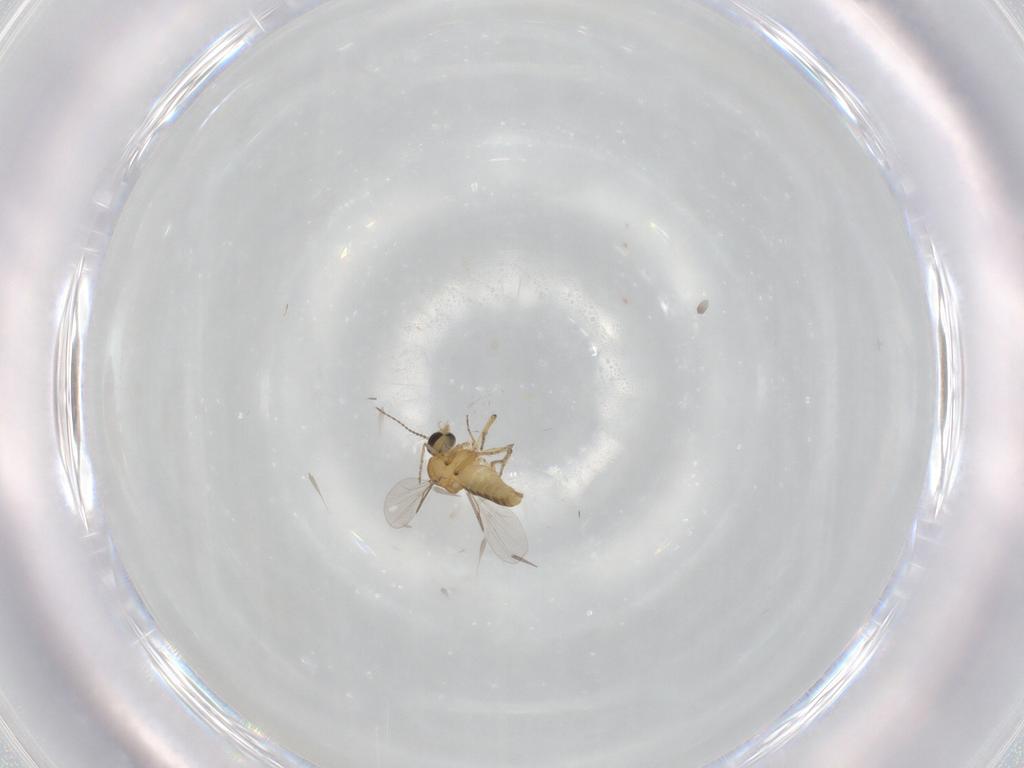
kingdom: Animalia
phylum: Arthropoda
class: Insecta
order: Diptera
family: Ceratopogonidae
